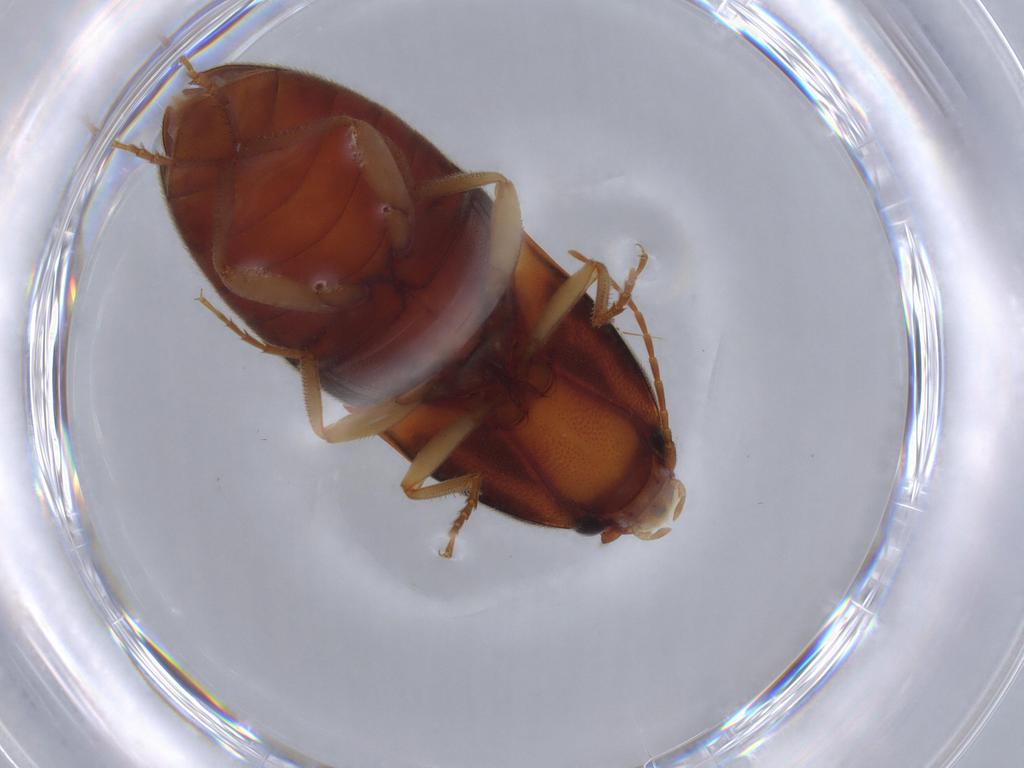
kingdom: Animalia
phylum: Arthropoda
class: Insecta
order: Coleoptera
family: Elateridae
